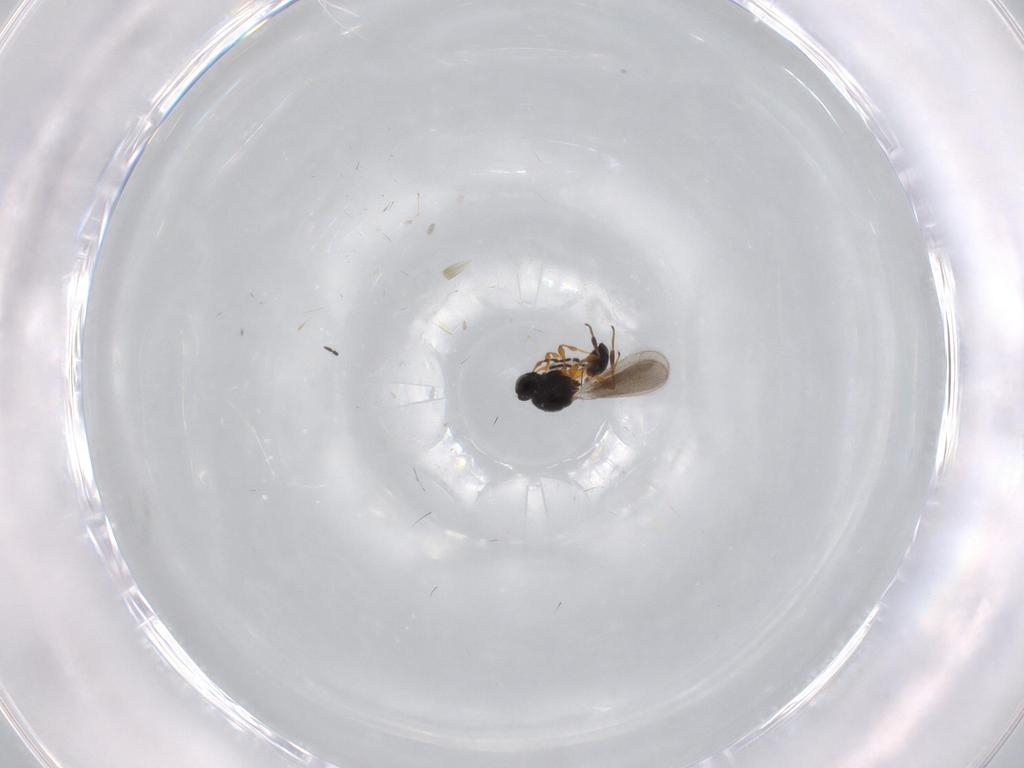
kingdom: Animalia
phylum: Arthropoda
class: Insecta
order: Hymenoptera
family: Platygastridae
